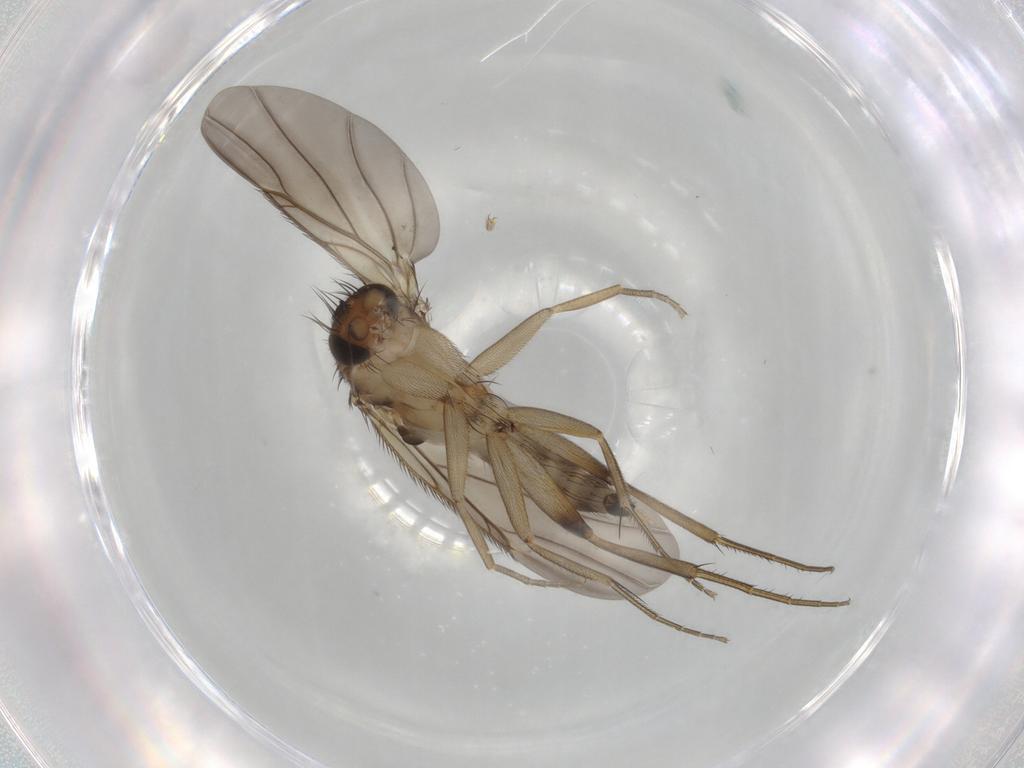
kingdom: Animalia
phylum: Arthropoda
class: Insecta
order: Diptera
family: Phoridae
